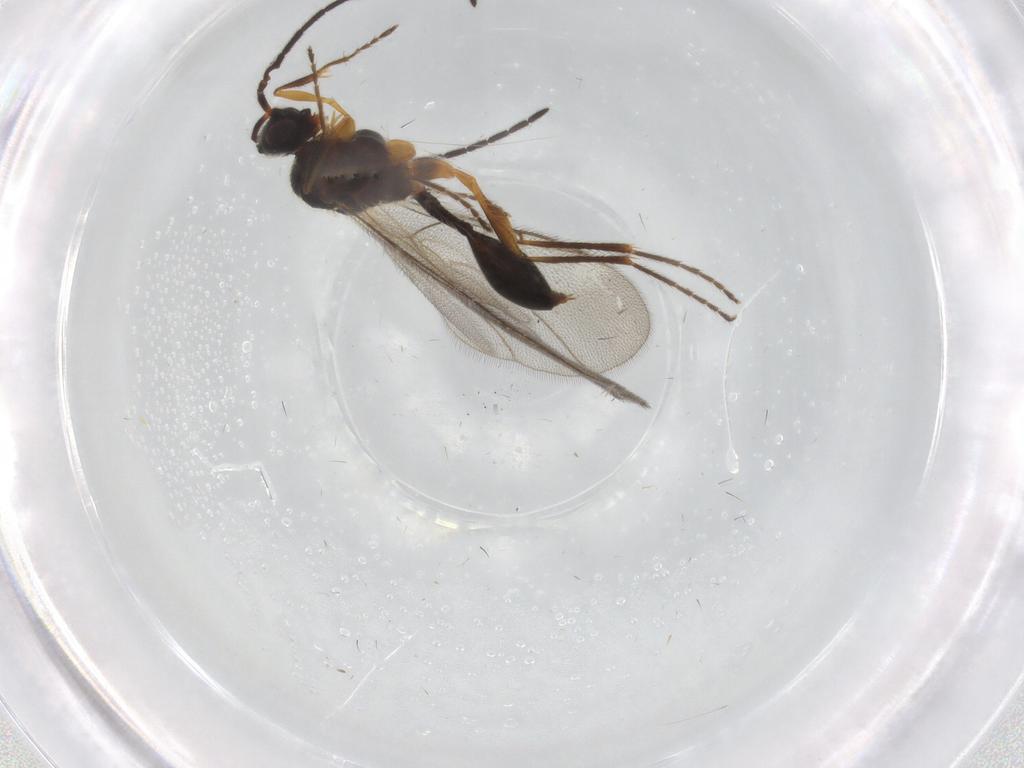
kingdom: Animalia
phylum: Arthropoda
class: Insecta
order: Hymenoptera
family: Diapriidae
